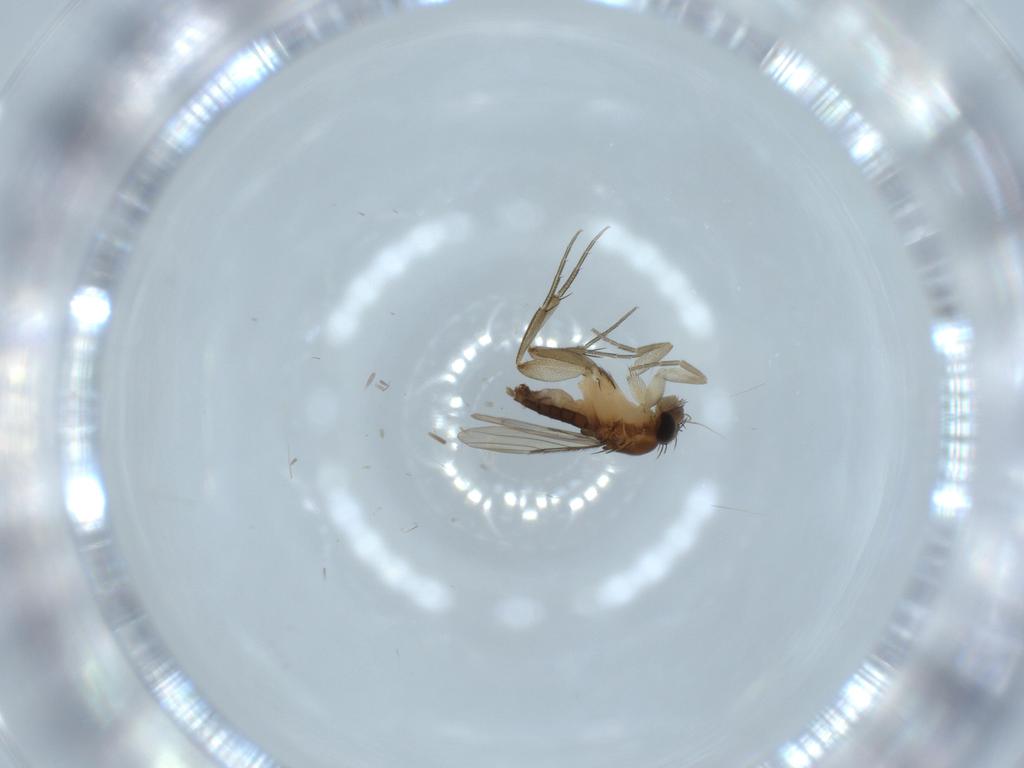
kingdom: Animalia
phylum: Arthropoda
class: Insecta
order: Diptera
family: Phoridae
